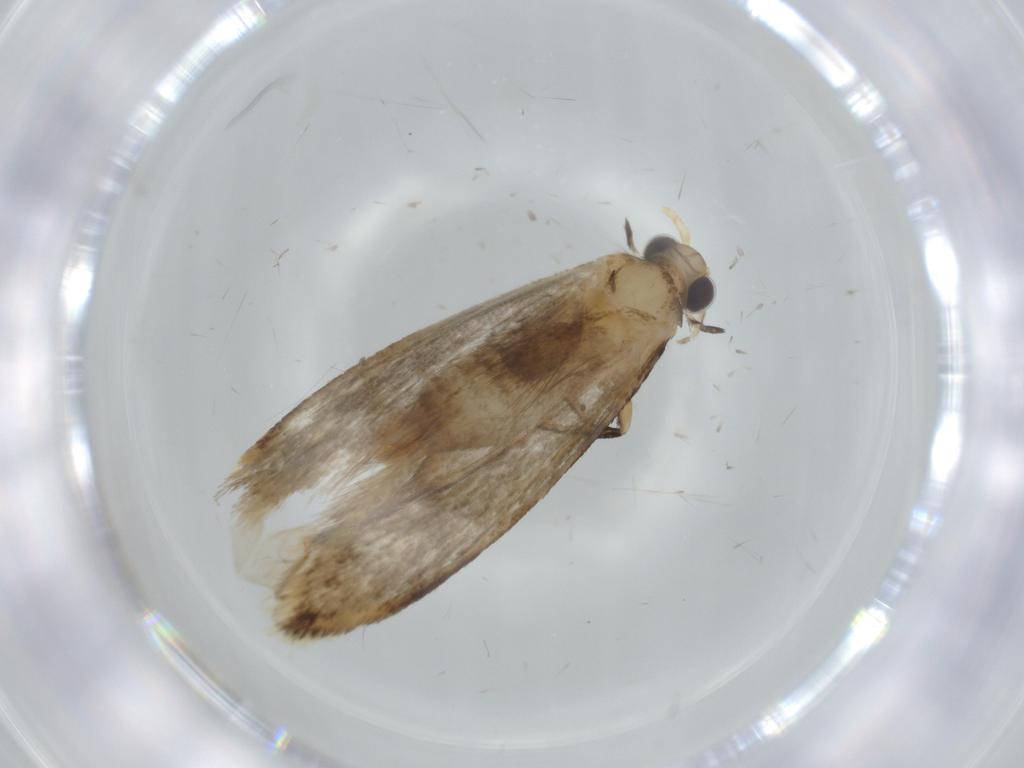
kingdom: Animalia
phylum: Arthropoda
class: Insecta
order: Lepidoptera
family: Tineidae
